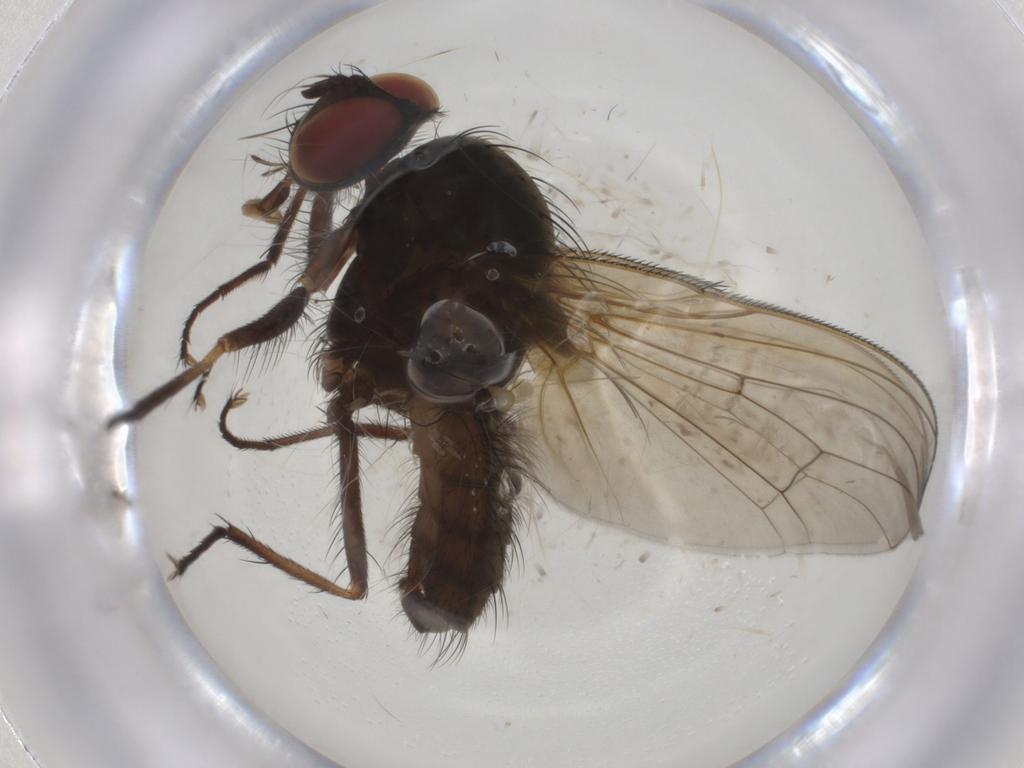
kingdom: Animalia
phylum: Arthropoda
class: Insecta
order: Diptera
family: Anthomyiidae
